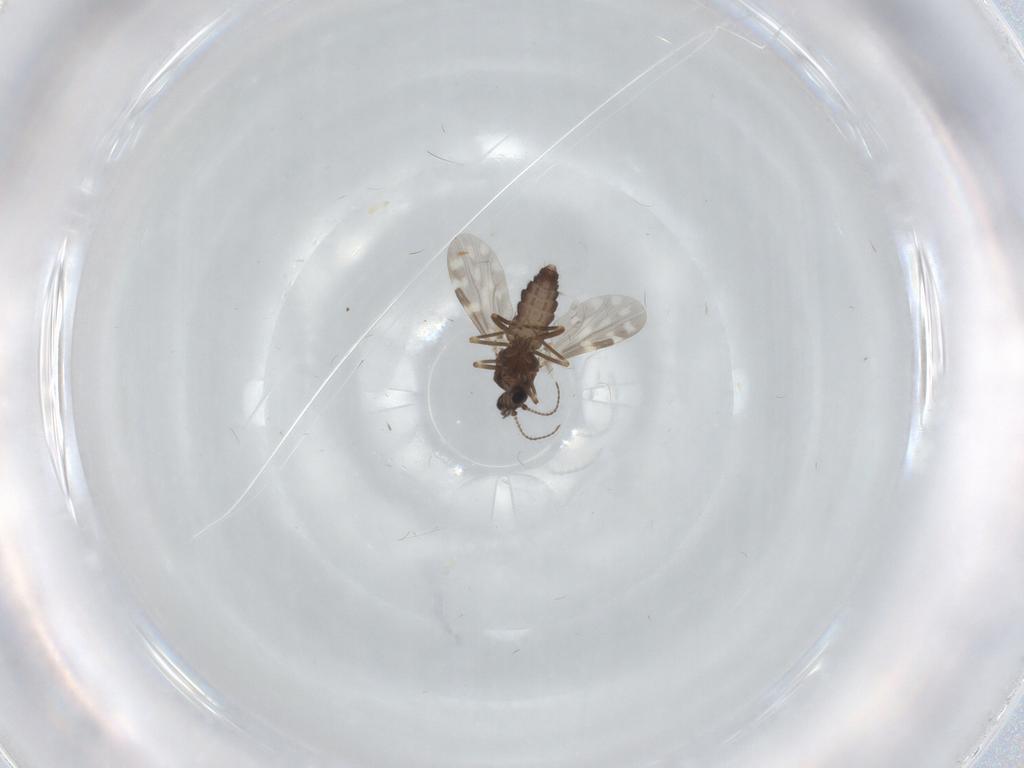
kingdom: Animalia
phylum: Arthropoda
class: Insecta
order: Diptera
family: Ceratopogonidae
